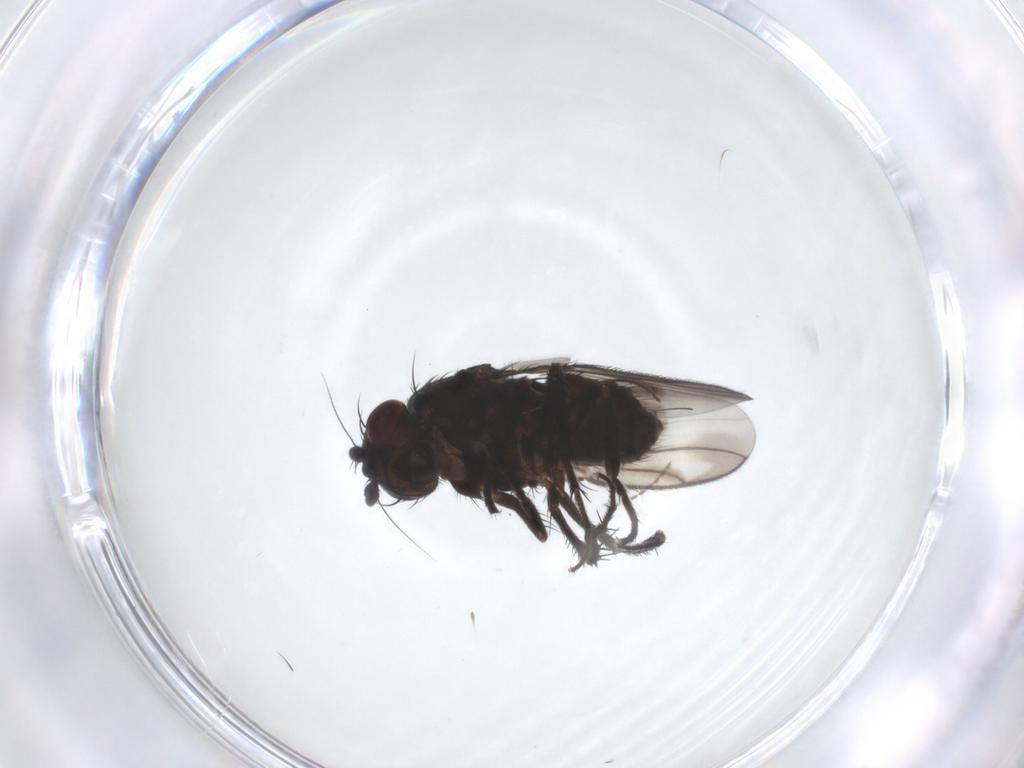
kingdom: Animalia
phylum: Arthropoda
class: Insecta
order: Diptera
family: Sphaeroceridae
